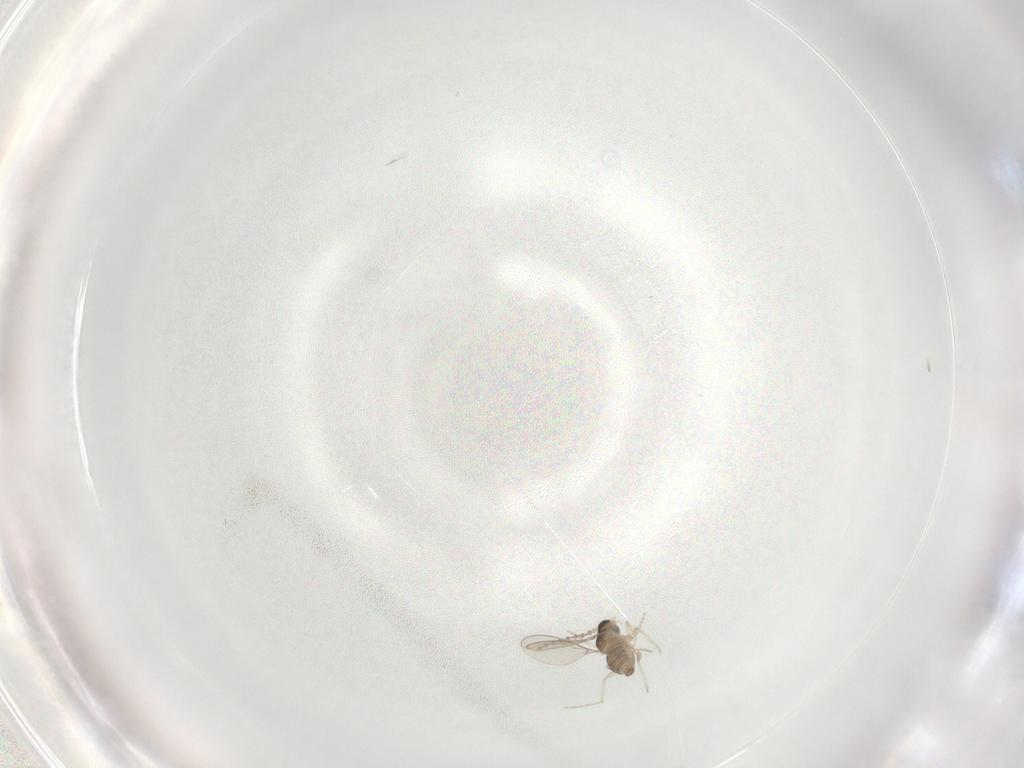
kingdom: Animalia
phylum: Arthropoda
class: Insecta
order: Diptera
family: Cecidomyiidae
